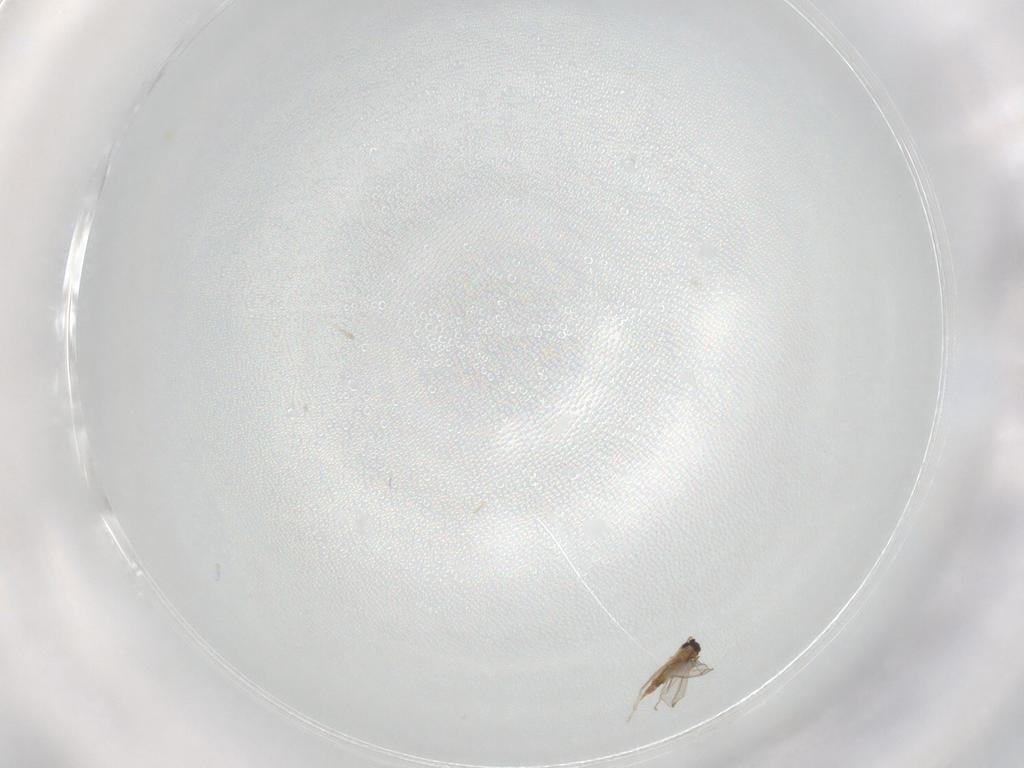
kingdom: Animalia
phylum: Arthropoda
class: Insecta
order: Diptera
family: Cecidomyiidae
